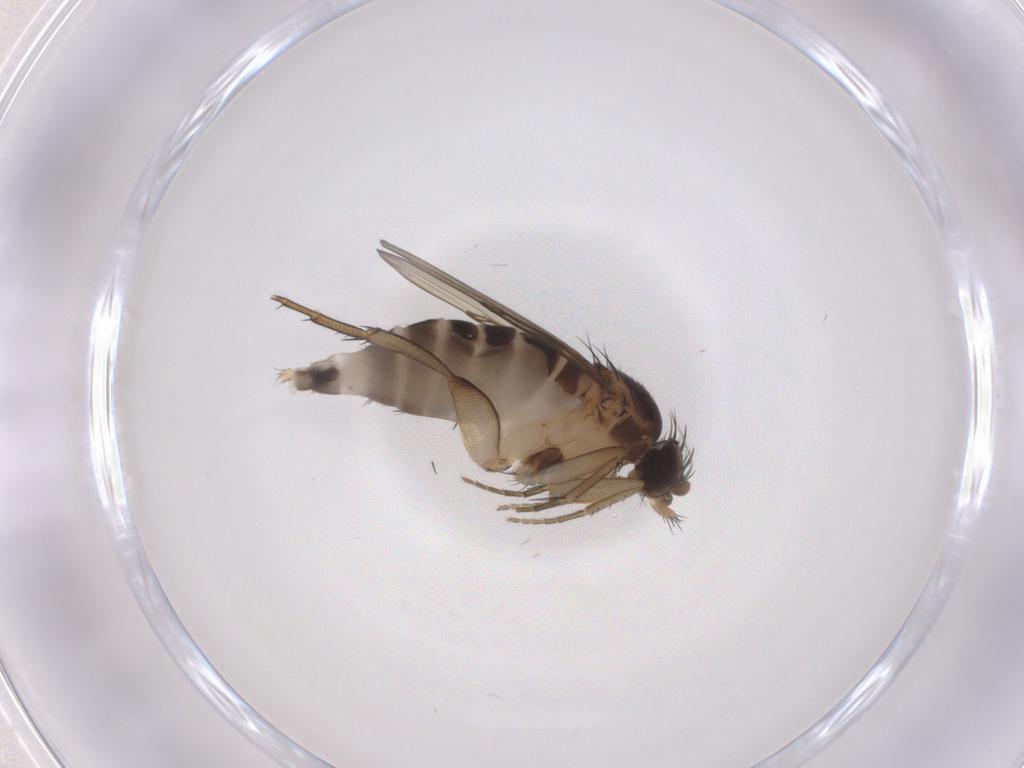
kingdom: Animalia
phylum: Arthropoda
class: Insecta
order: Diptera
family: Phoridae
